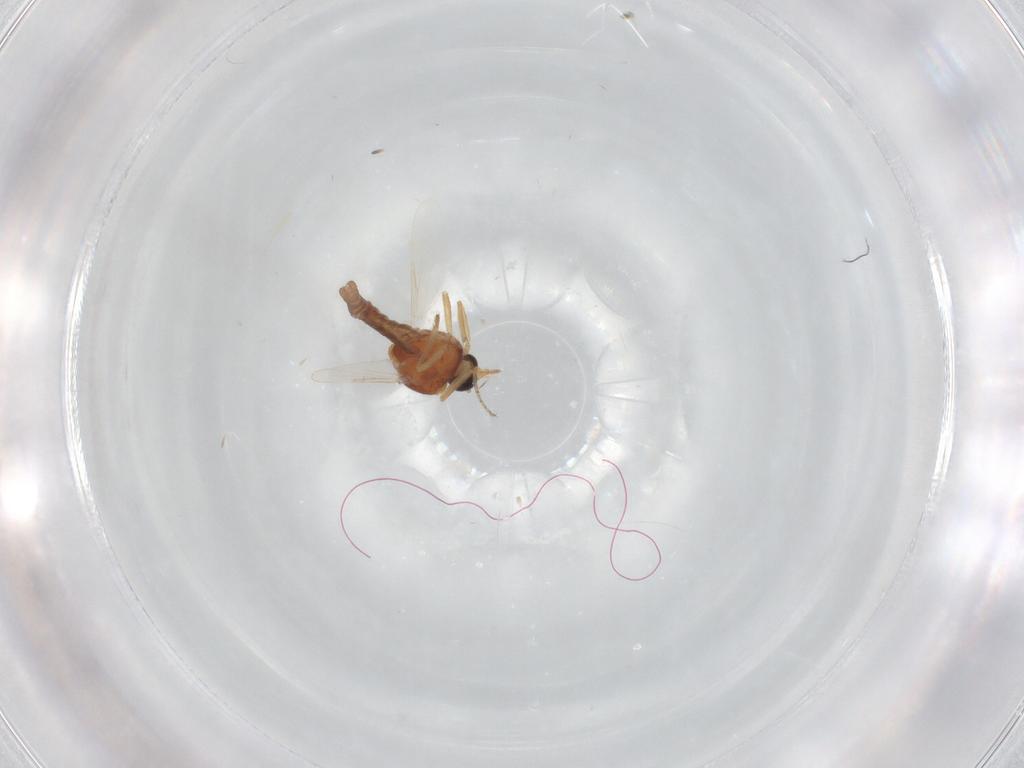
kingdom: Animalia
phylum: Arthropoda
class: Insecta
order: Diptera
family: Ceratopogonidae
